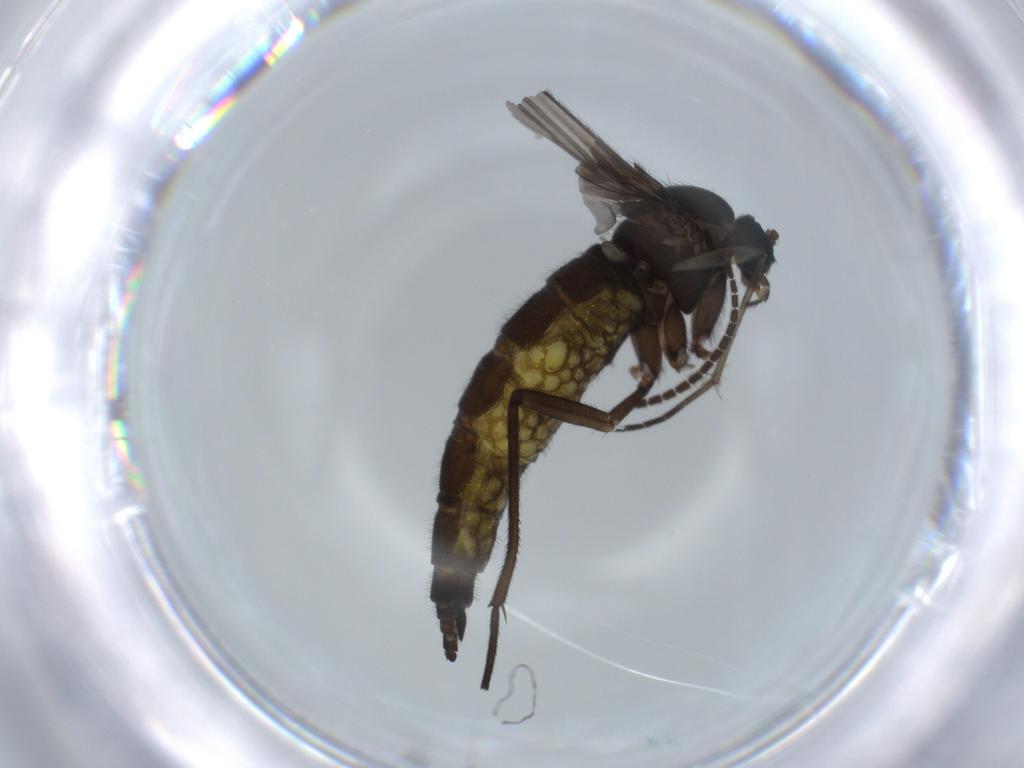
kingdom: Animalia
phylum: Arthropoda
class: Insecta
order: Diptera
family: Sciaridae
